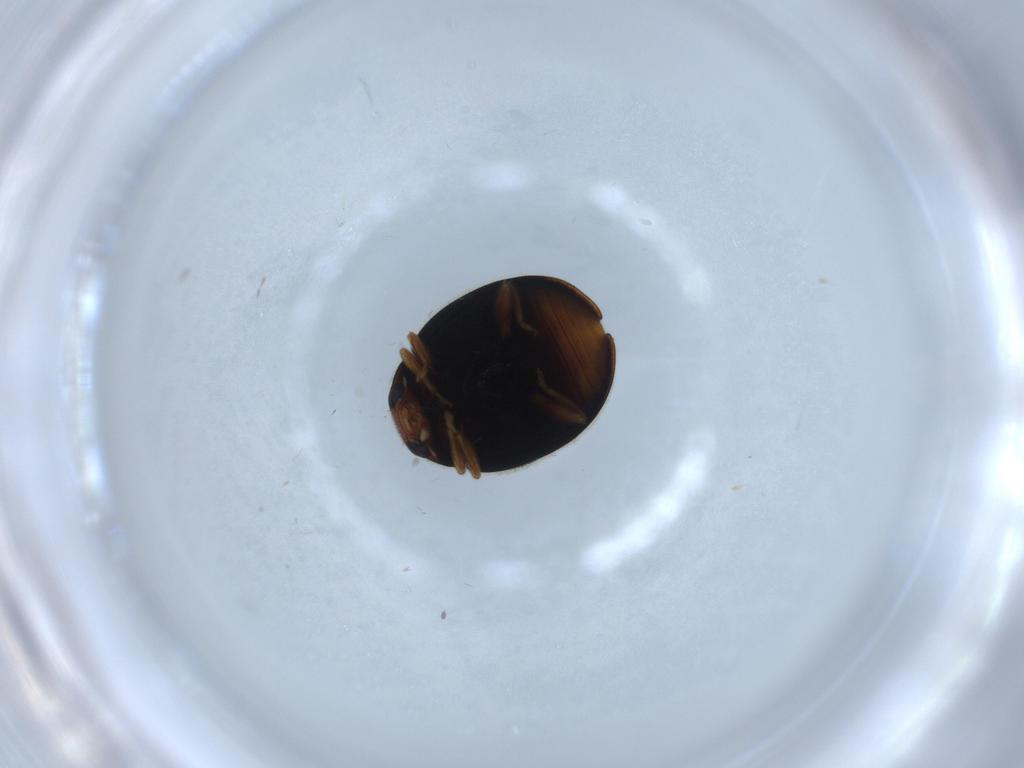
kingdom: Animalia
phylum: Arthropoda
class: Insecta
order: Coleoptera
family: Coccinellidae
